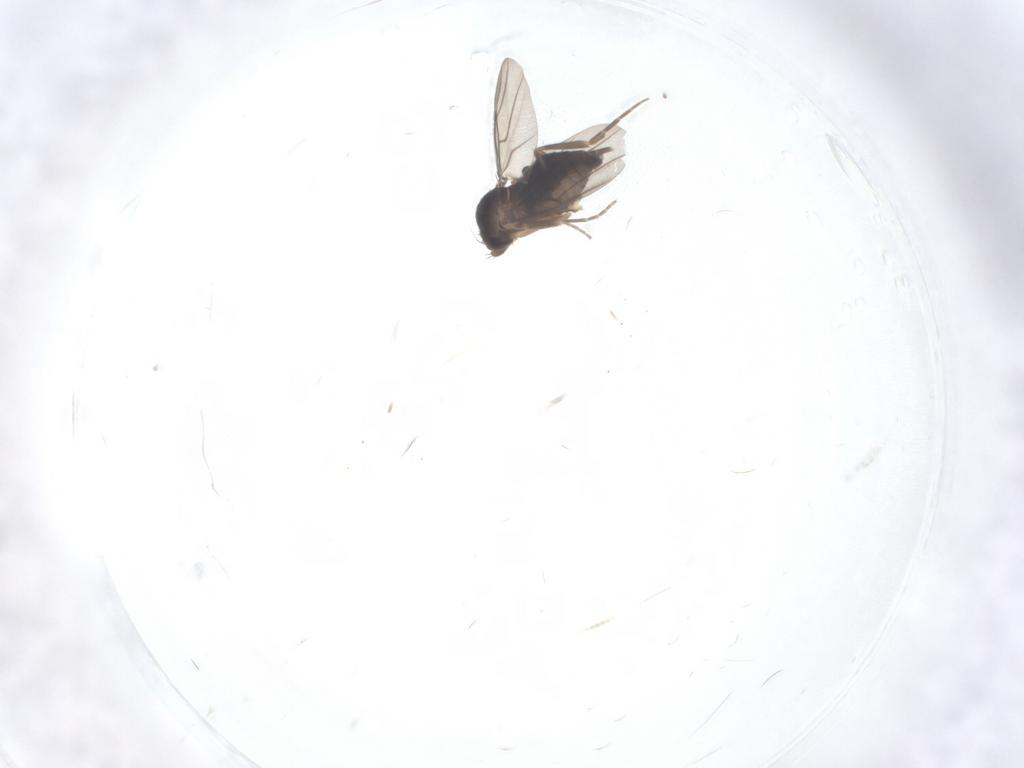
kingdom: Animalia
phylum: Arthropoda
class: Insecta
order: Diptera
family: Phoridae
